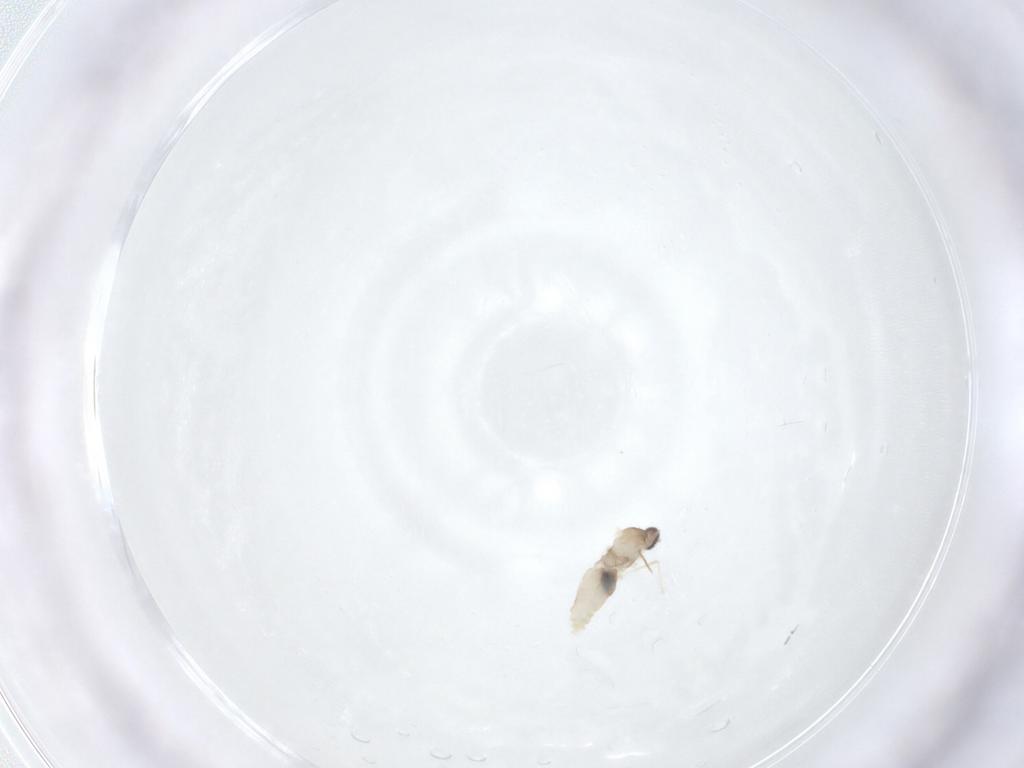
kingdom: Animalia
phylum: Arthropoda
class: Insecta
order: Diptera
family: Cecidomyiidae
